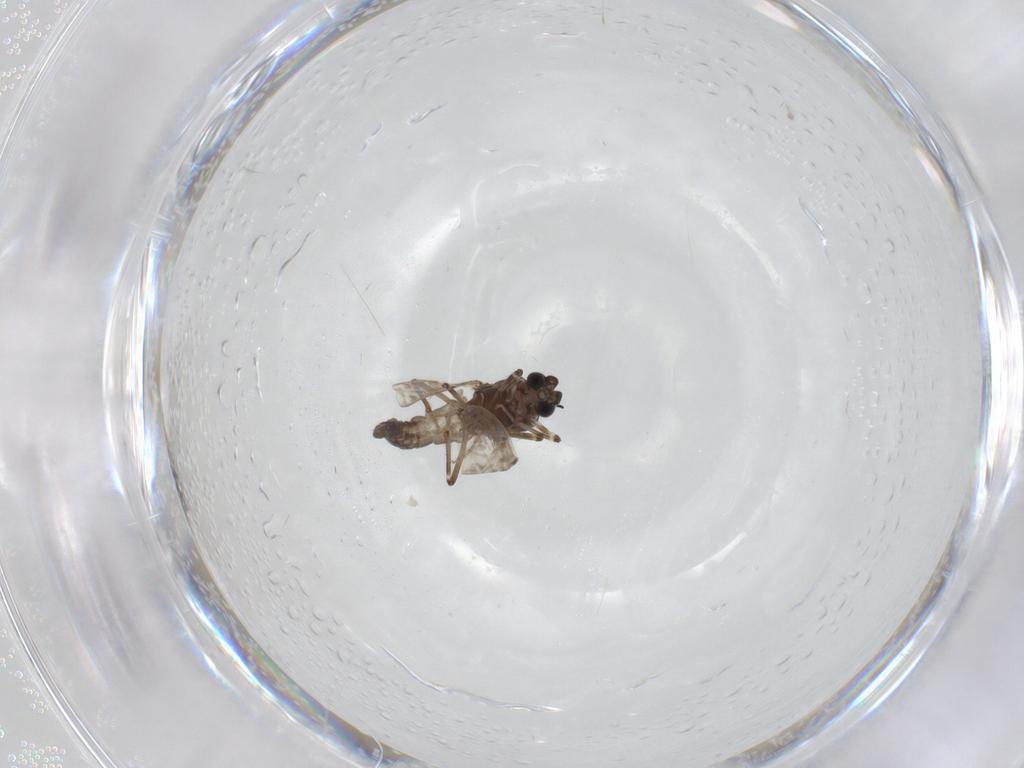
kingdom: Animalia
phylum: Arthropoda
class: Insecta
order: Diptera
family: Ceratopogonidae
